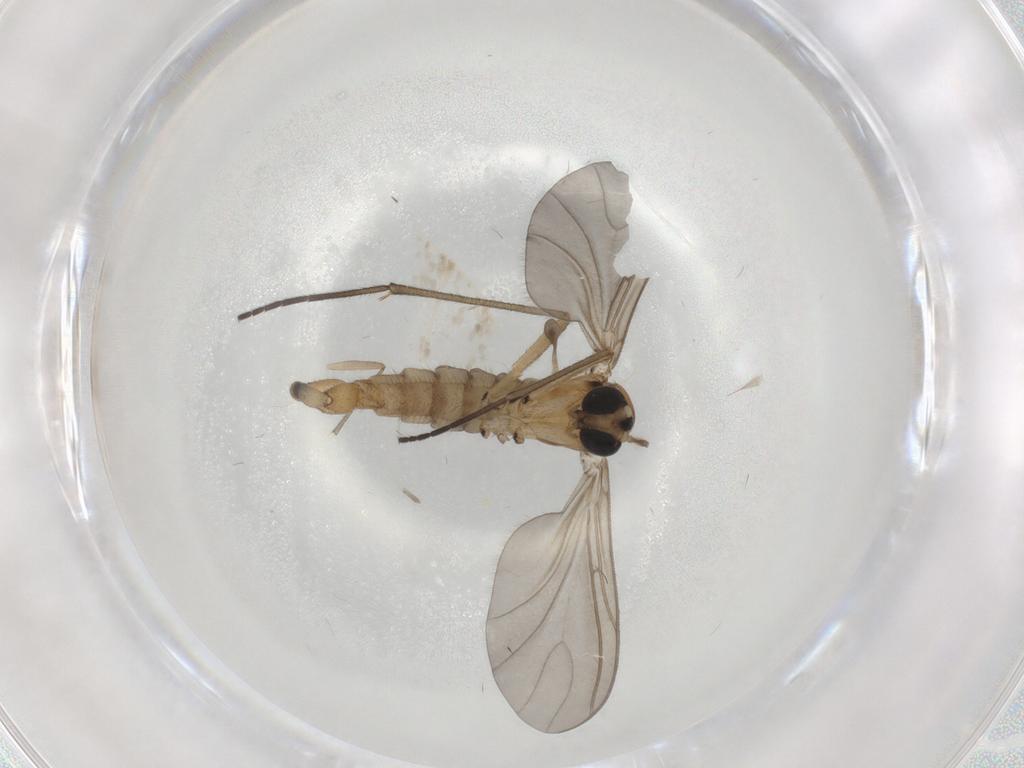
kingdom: Animalia
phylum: Arthropoda
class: Insecta
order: Diptera
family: Sciaridae
